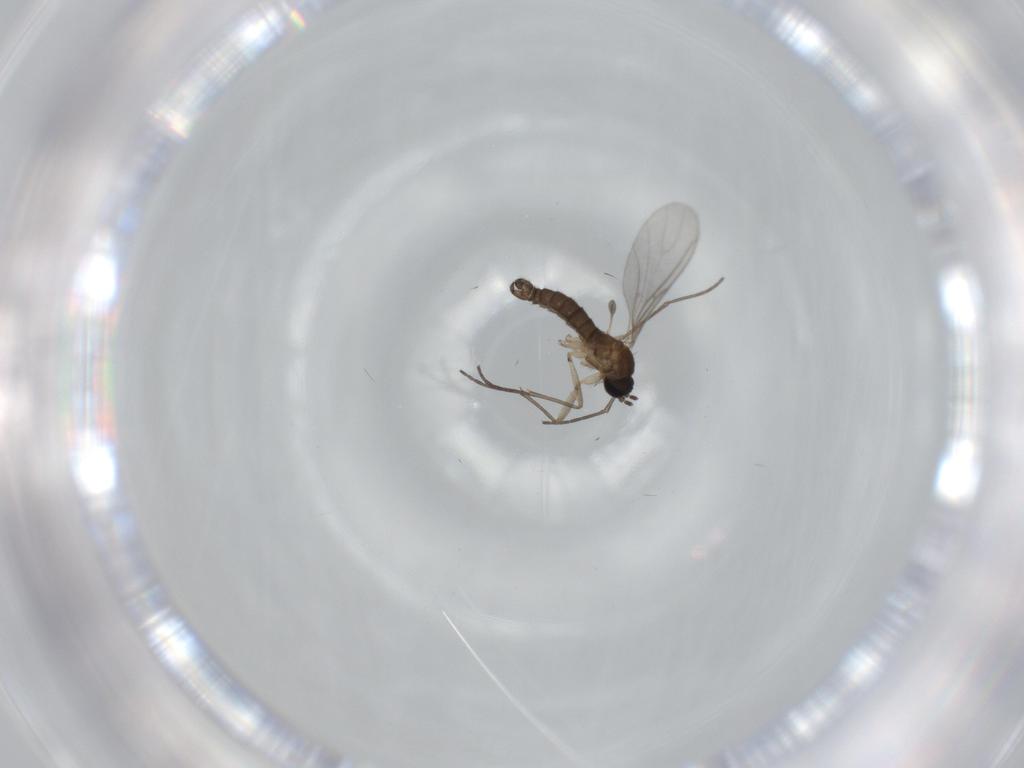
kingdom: Animalia
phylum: Arthropoda
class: Insecta
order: Diptera
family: Sciaridae
